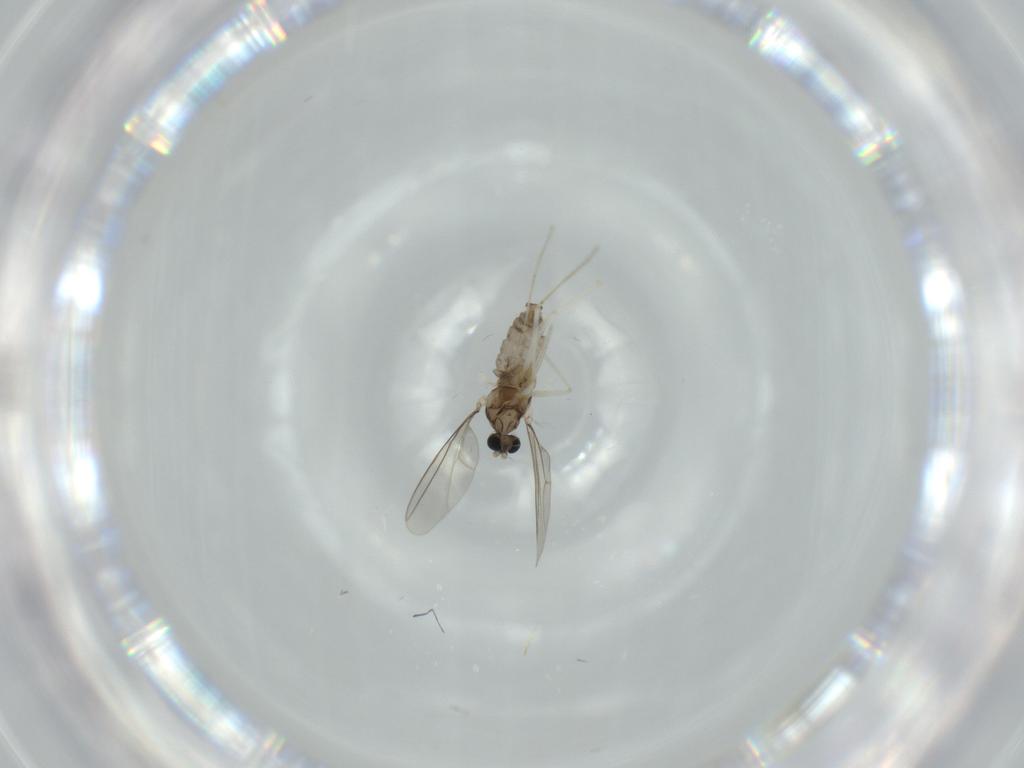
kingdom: Animalia
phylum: Arthropoda
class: Insecta
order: Diptera
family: Cecidomyiidae
